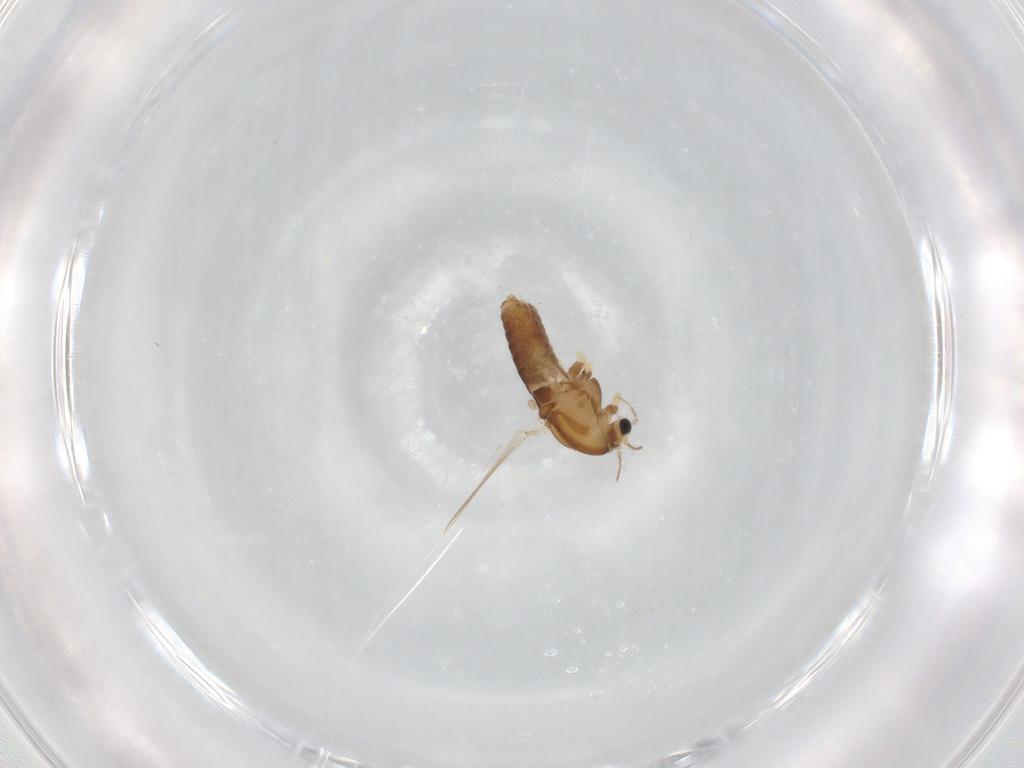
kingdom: Animalia
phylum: Arthropoda
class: Insecta
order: Diptera
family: Chironomidae
